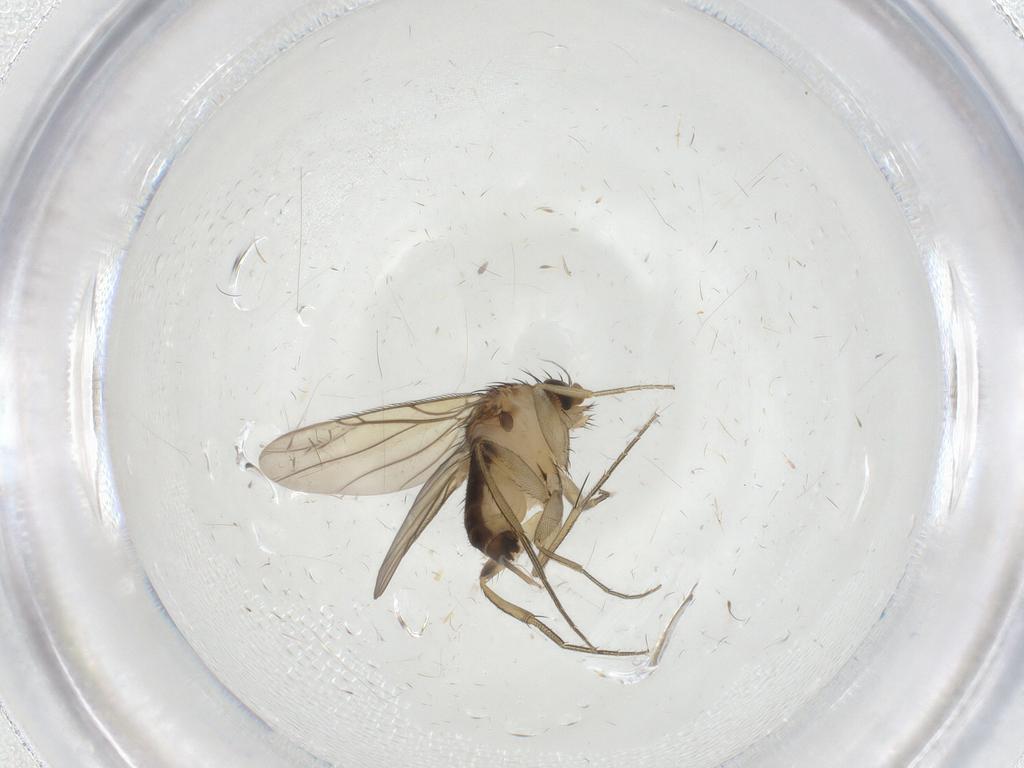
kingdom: Animalia
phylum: Arthropoda
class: Insecta
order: Diptera
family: Phoridae
